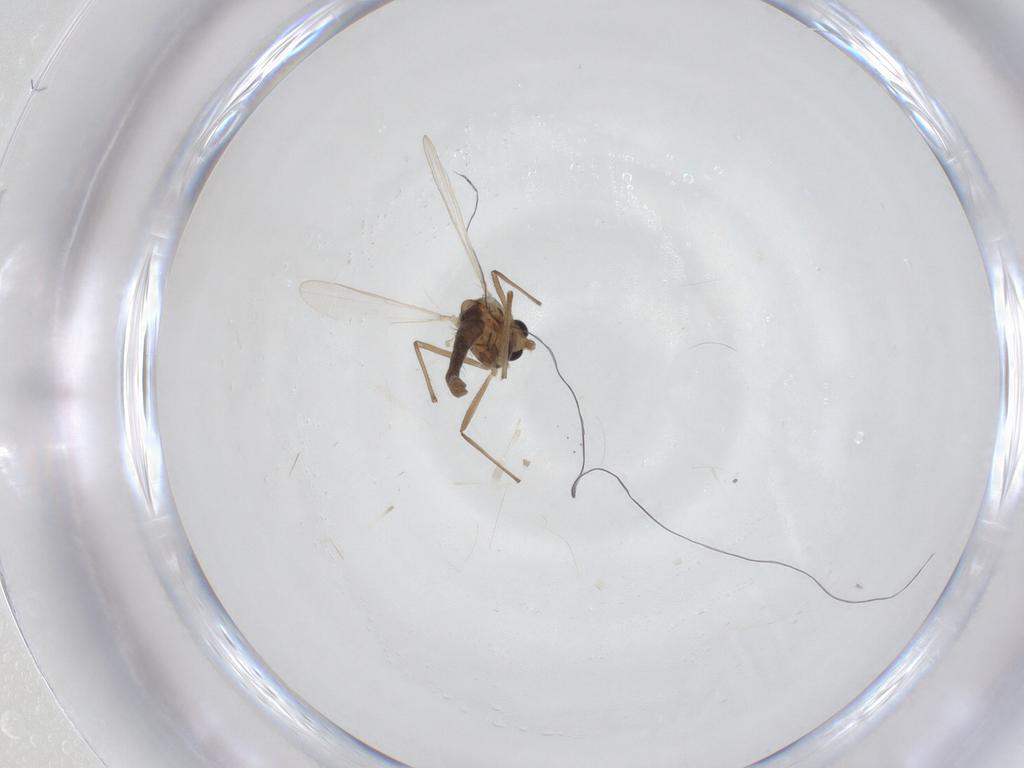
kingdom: Animalia
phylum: Arthropoda
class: Insecta
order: Diptera
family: Chironomidae
